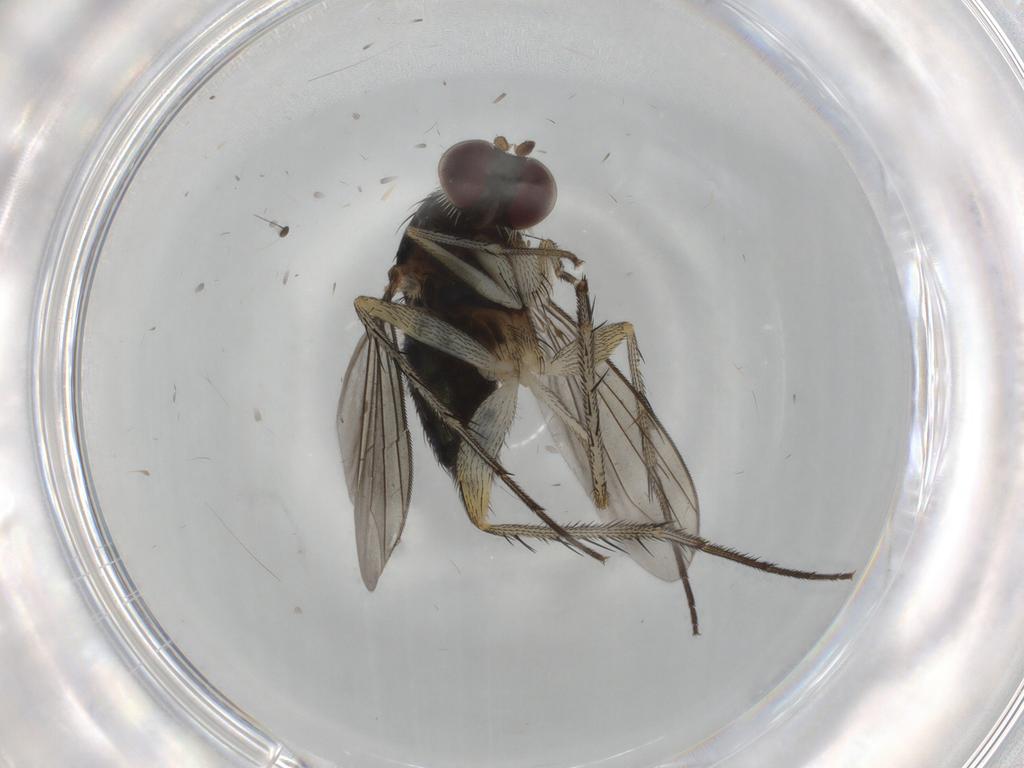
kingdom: Animalia
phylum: Arthropoda
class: Insecta
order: Diptera
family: Dolichopodidae
